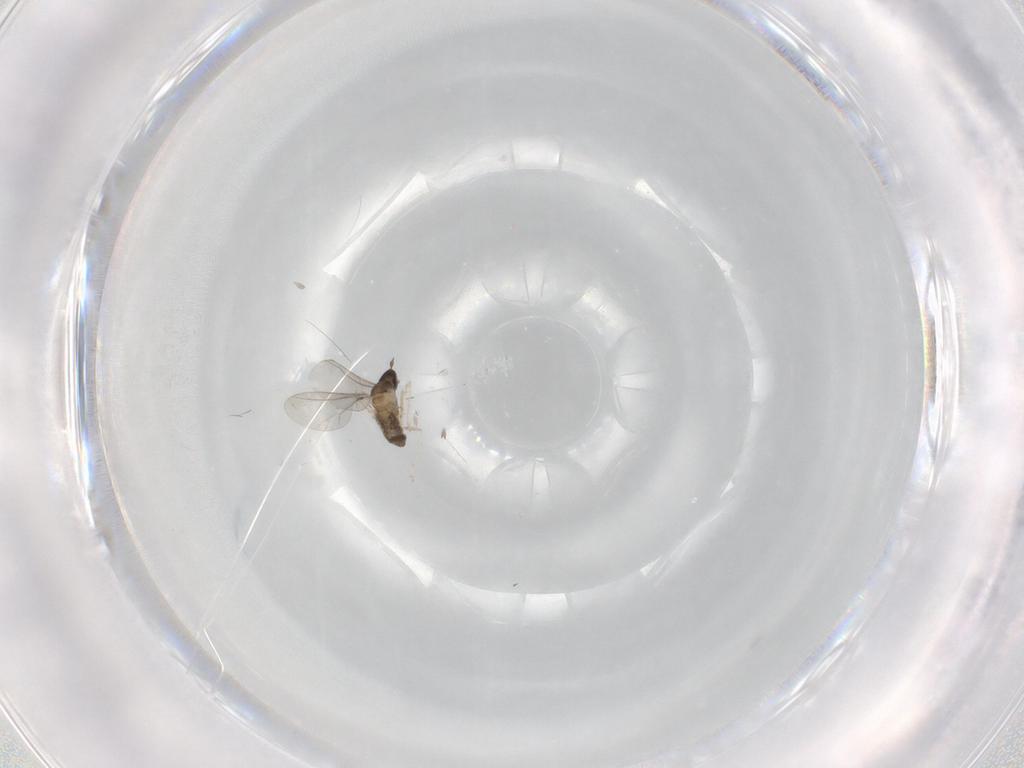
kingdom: Animalia
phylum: Arthropoda
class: Insecta
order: Diptera
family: Cecidomyiidae
